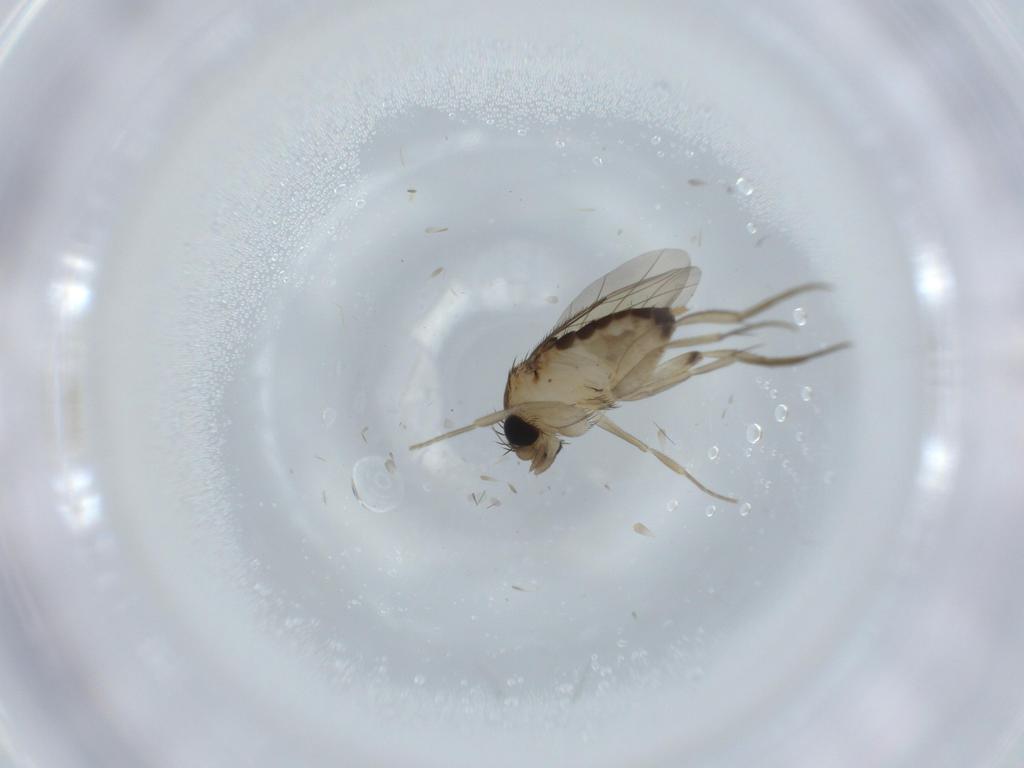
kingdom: Animalia
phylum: Arthropoda
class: Insecta
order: Diptera
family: Phoridae
